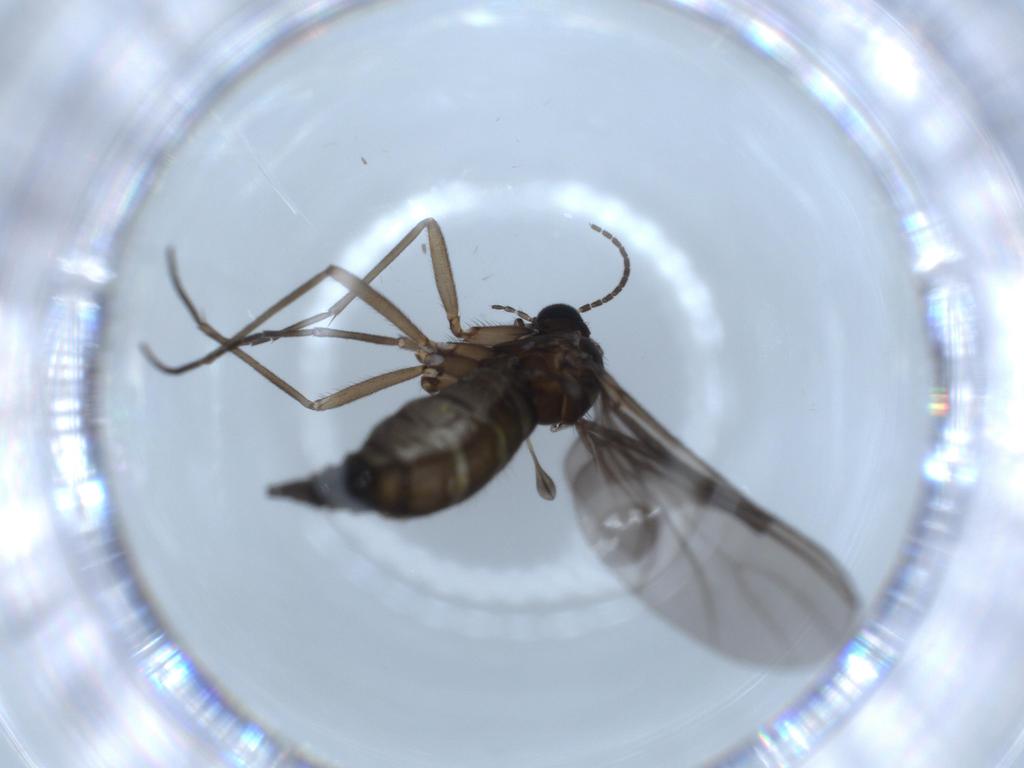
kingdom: Animalia
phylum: Arthropoda
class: Insecta
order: Diptera
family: Sciaridae
